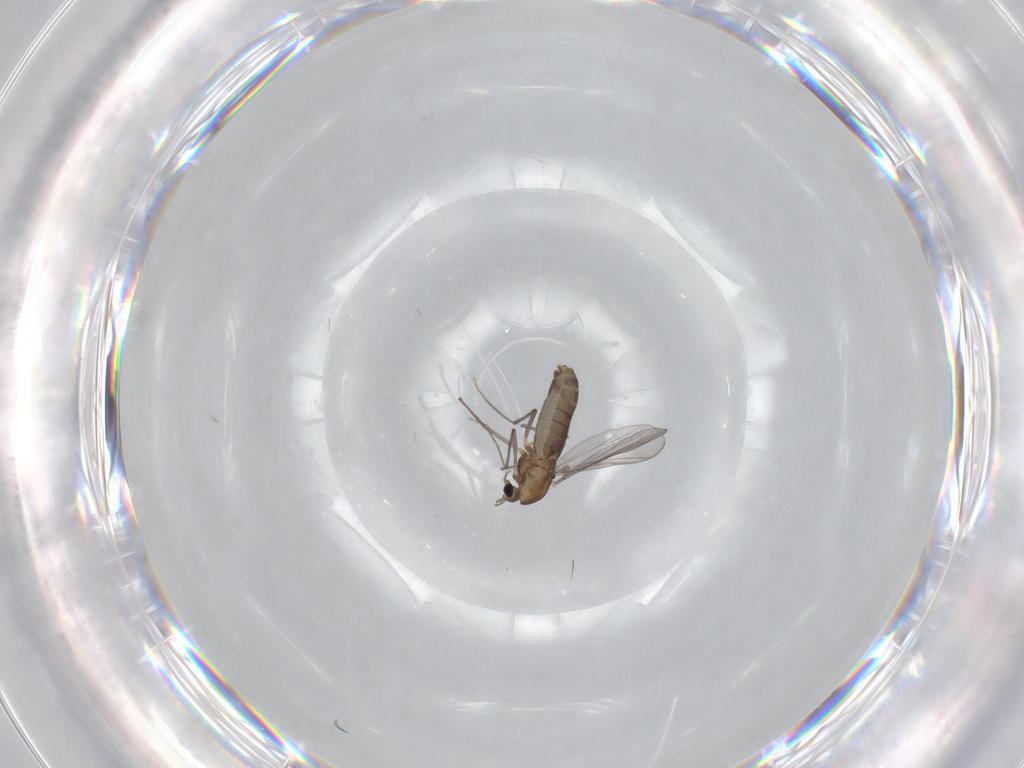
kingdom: Animalia
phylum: Arthropoda
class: Insecta
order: Diptera
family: Chironomidae
